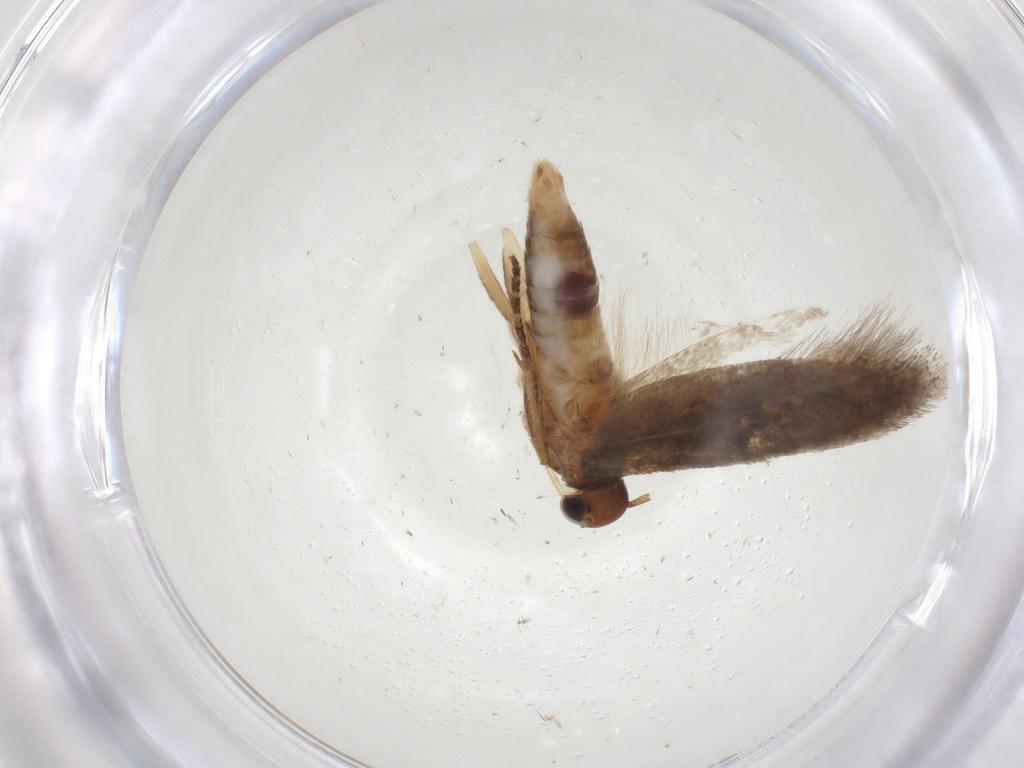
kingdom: Animalia
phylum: Arthropoda
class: Insecta
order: Lepidoptera
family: Gelechiidae
